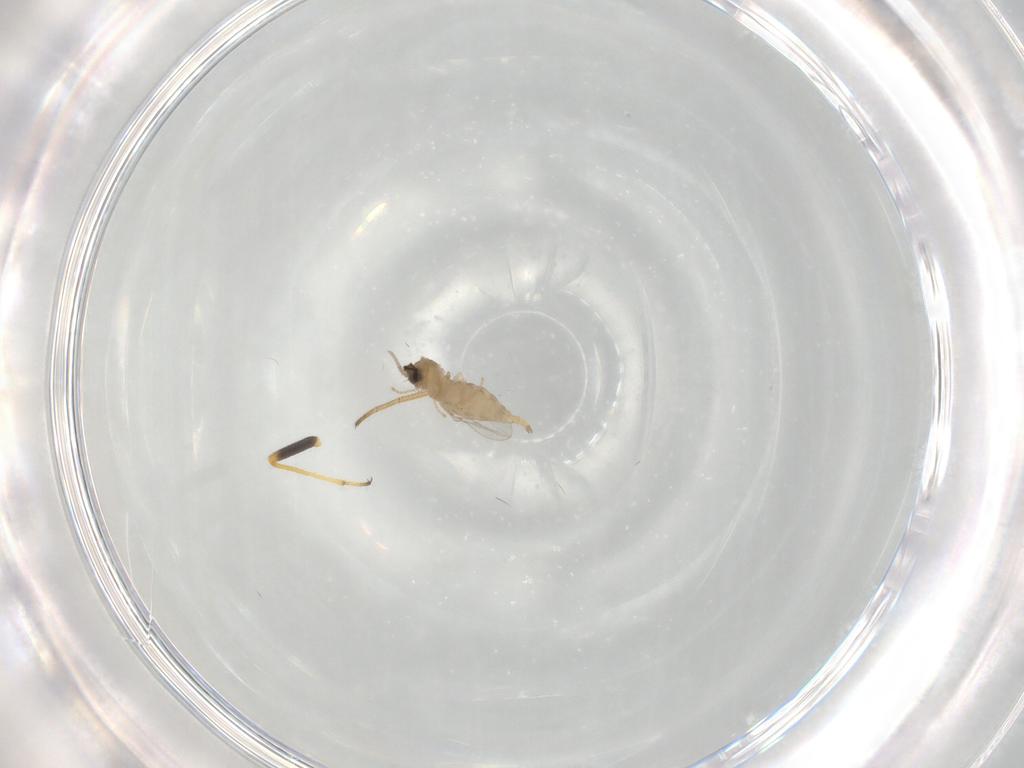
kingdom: Animalia
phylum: Arthropoda
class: Insecta
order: Diptera
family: Cecidomyiidae
